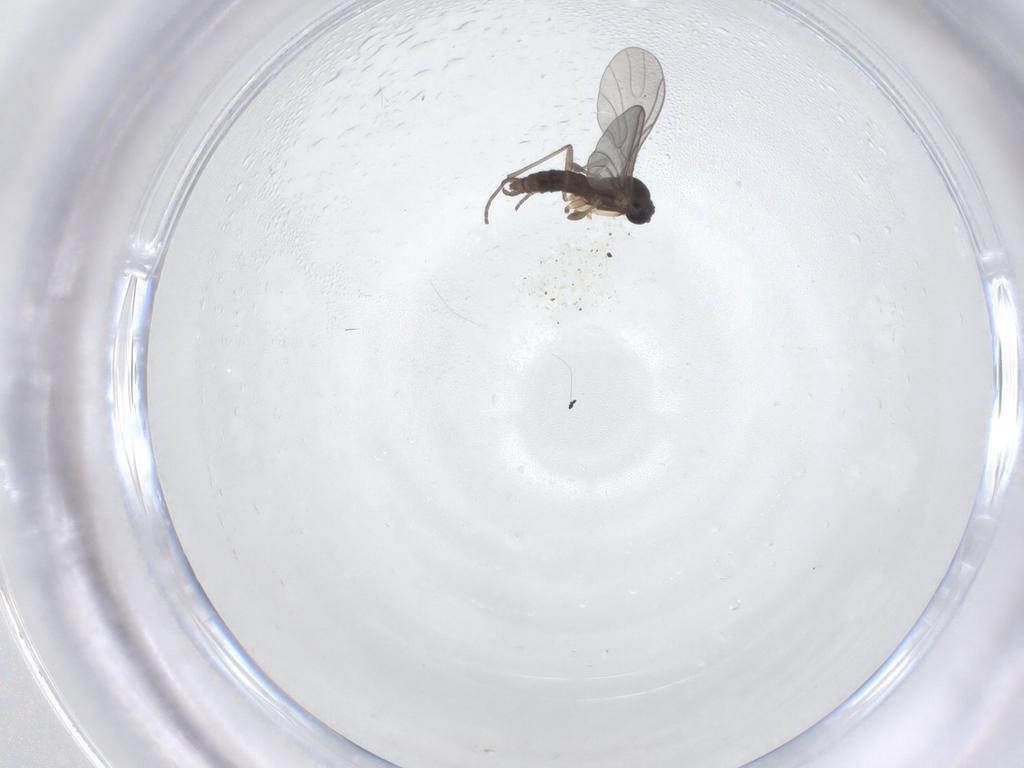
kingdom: Animalia
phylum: Arthropoda
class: Insecta
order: Diptera
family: Sciaridae
